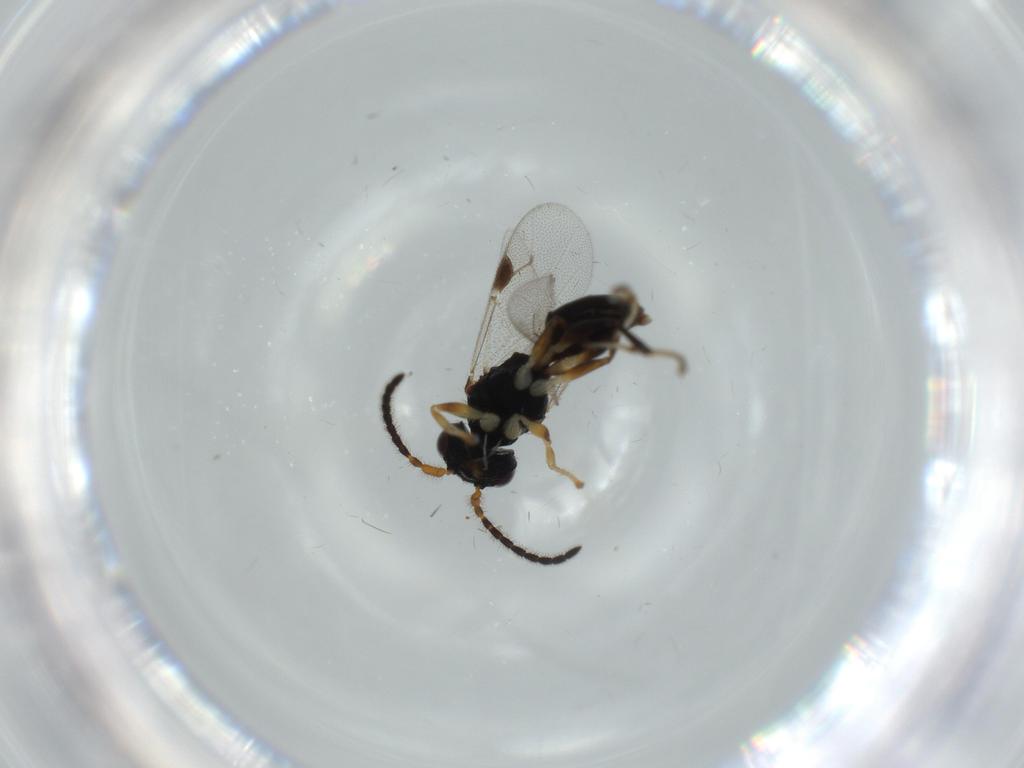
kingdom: Animalia
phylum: Arthropoda
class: Insecta
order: Hymenoptera
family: Dryinidae
